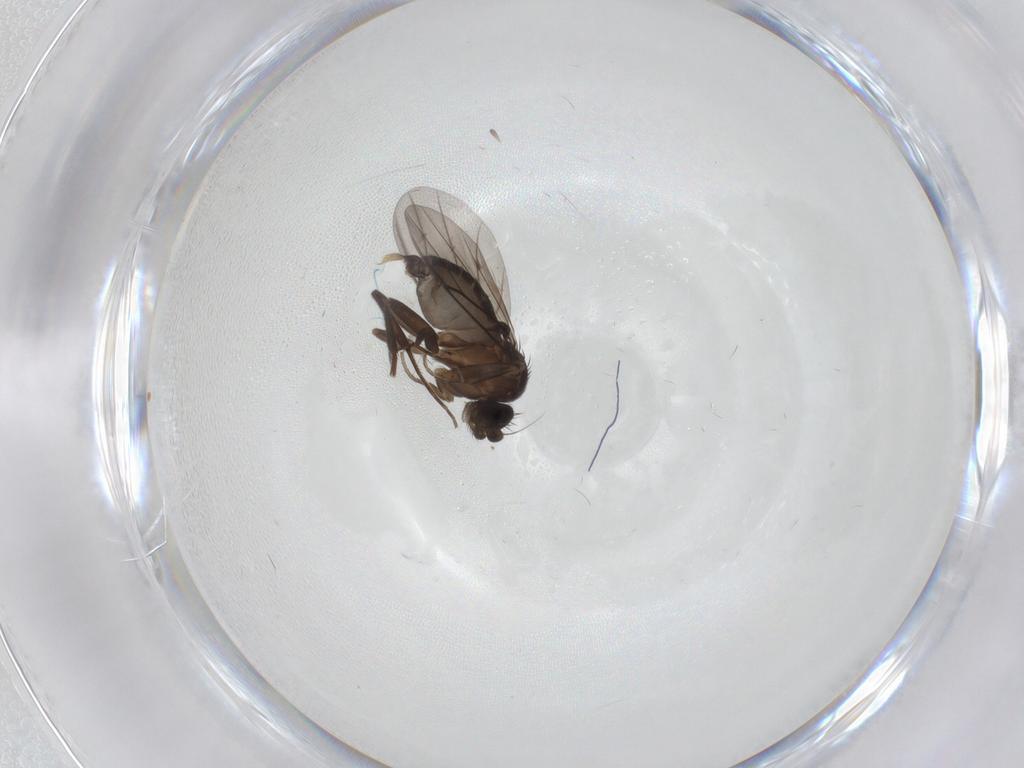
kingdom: Animalia
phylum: Arthropoda
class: Insecta
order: Diptera
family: Phoridae
